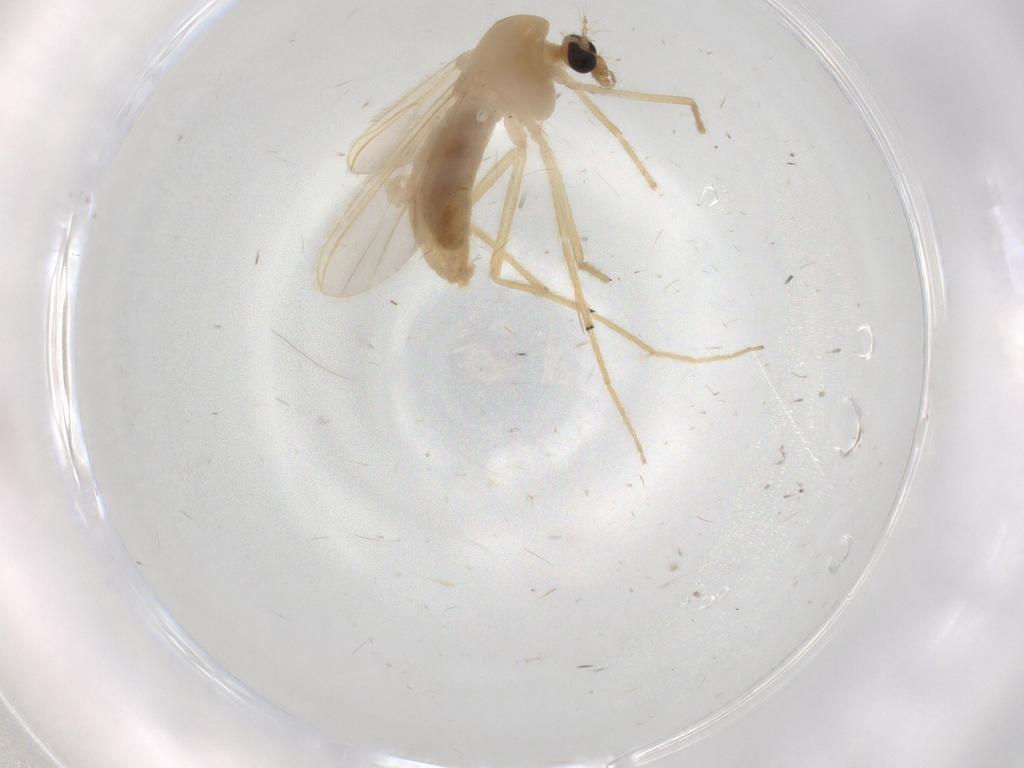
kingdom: Animalia
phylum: Arthropoda
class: Insecta
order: Diptera
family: Chironomidae
